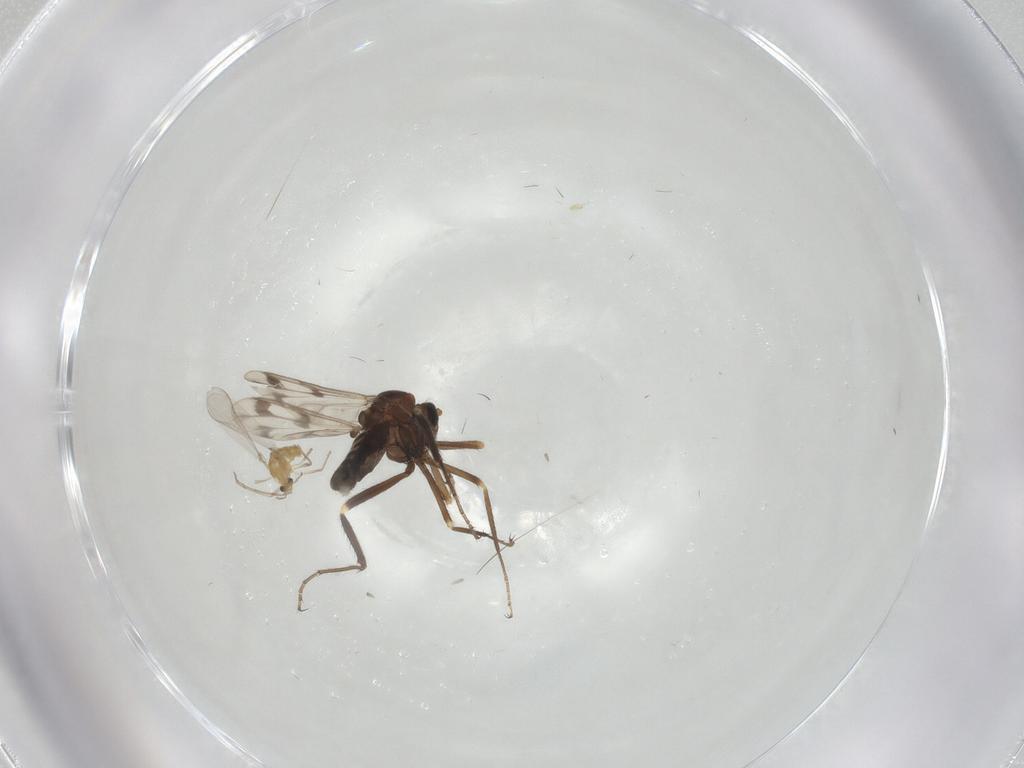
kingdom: Animalia
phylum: Arthropoda
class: Insecta
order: Diptera
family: Ceratopogonidae
